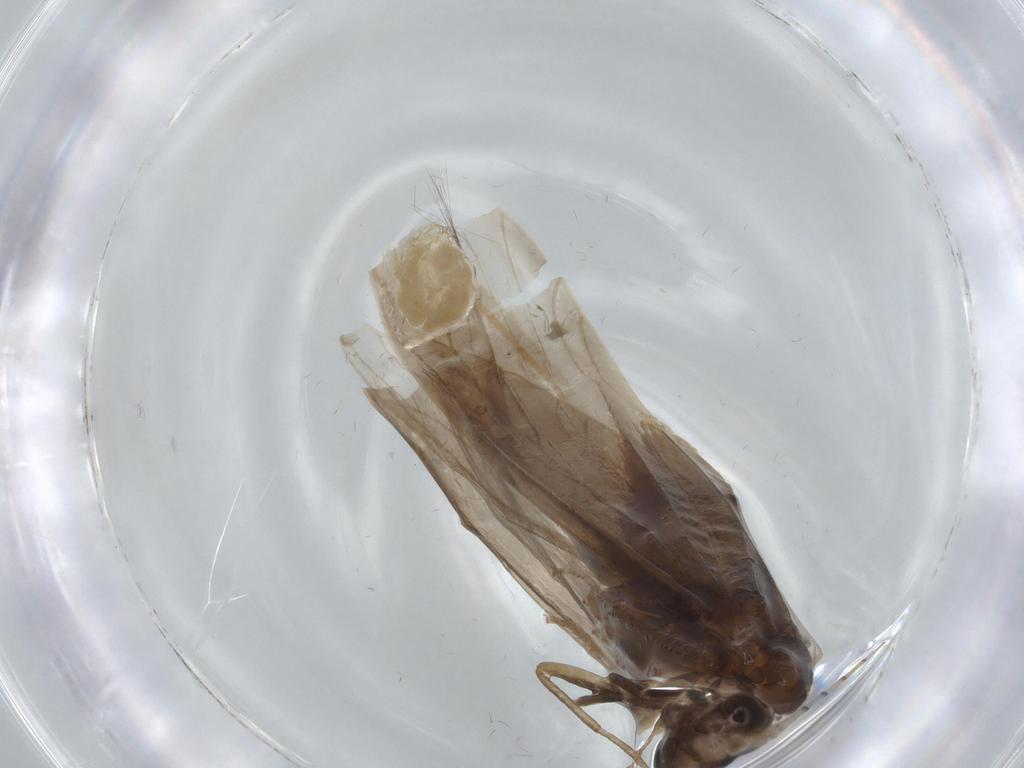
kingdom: Animalia
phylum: Arthropoda
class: Insecta
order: Trichoptera
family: Leptoceridae
